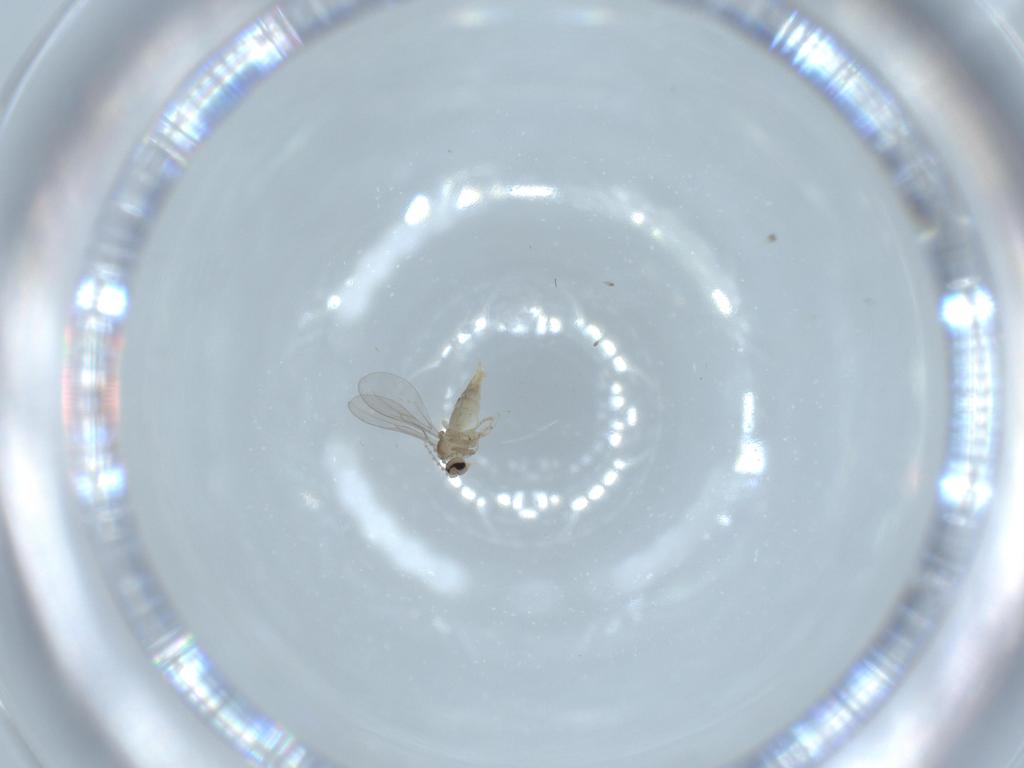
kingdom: Animalia
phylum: Arthropoda
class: Insecta
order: Diptera
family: Cecidomyiidae
